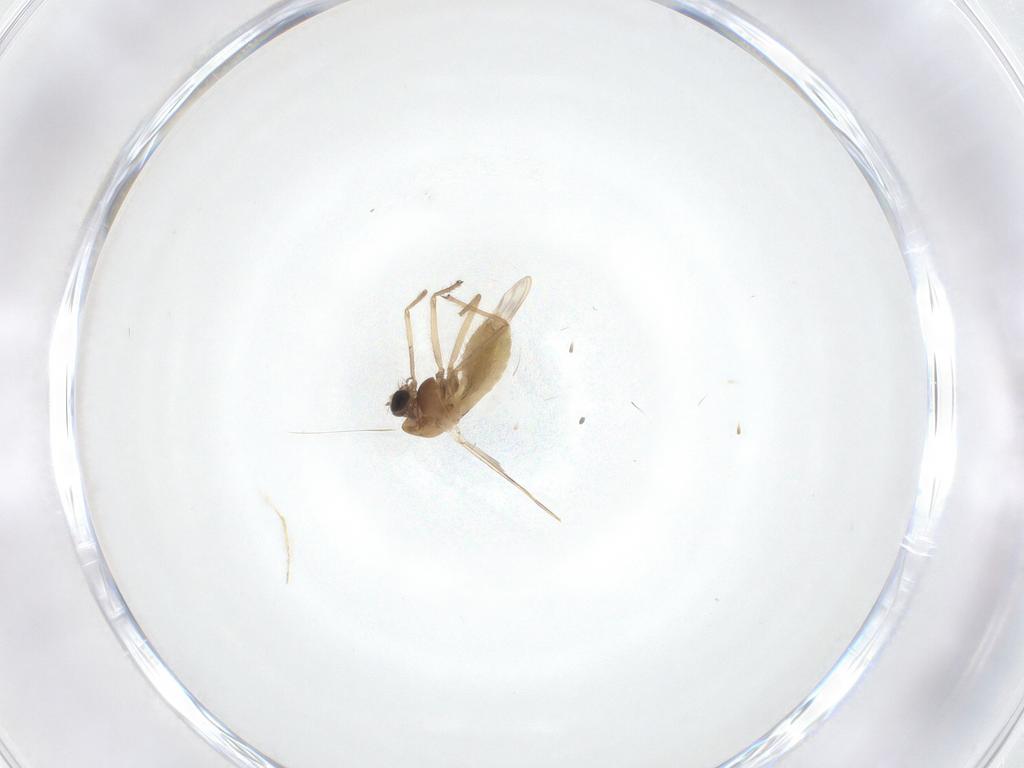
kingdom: Animalia
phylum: Arthropoda
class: Insecta
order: Diptera
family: Chironomidae
